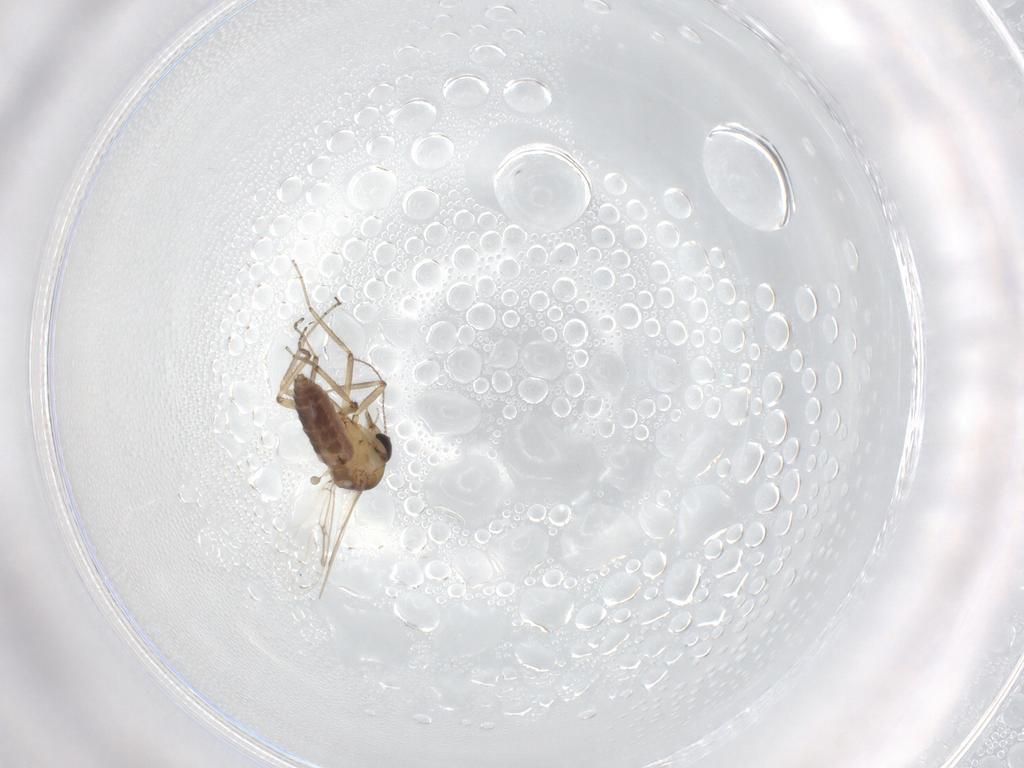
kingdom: Animalia
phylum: Arthropoda
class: Insecta
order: Diptera
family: Ceratopogonidae
